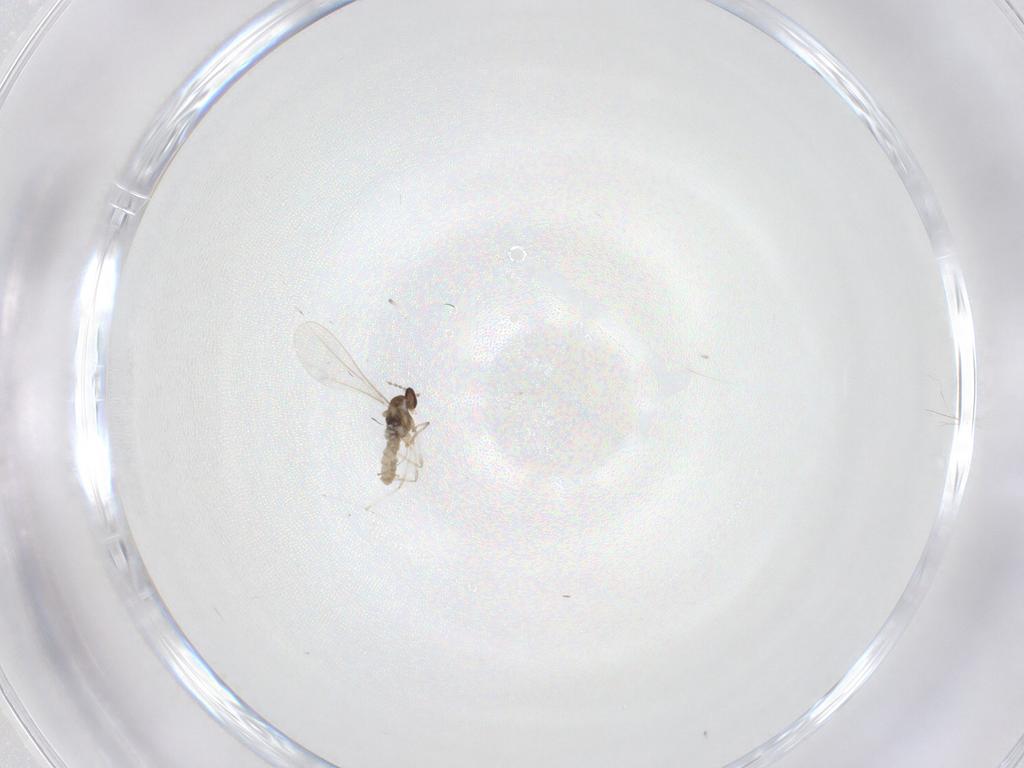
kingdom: Animalia
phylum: Arthropoda
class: Insecta
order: Diptera
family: Cecidomyiidae
